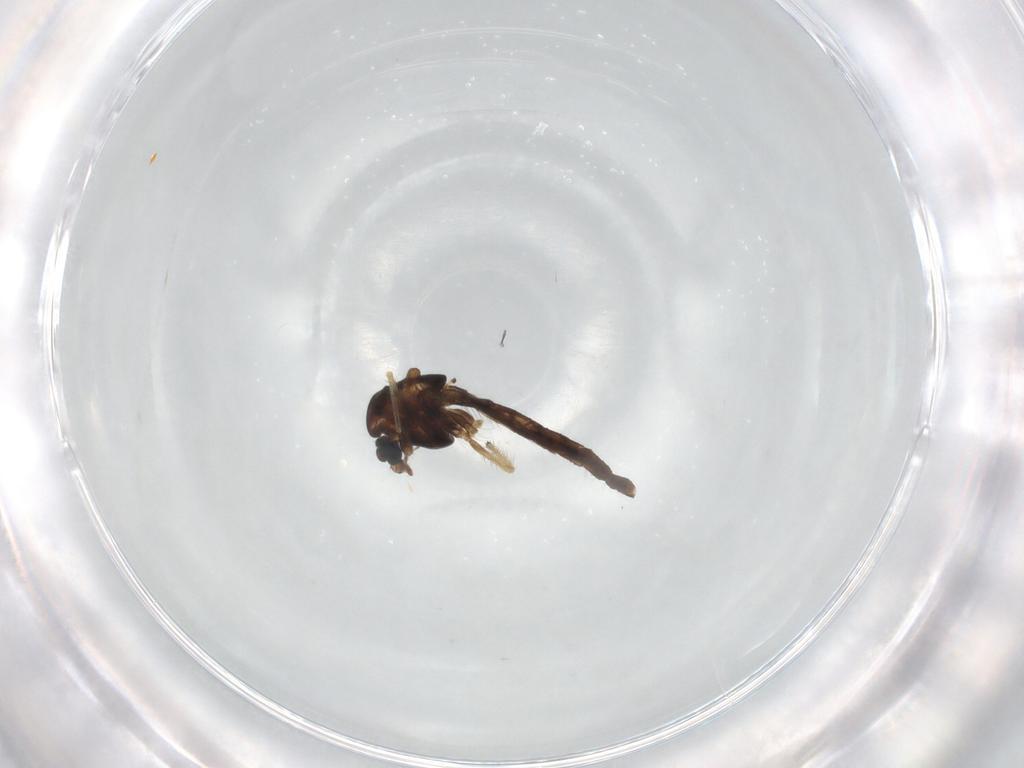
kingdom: Animalia
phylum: Arthropoda
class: Insecta
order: Diptera
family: Chironomidae
